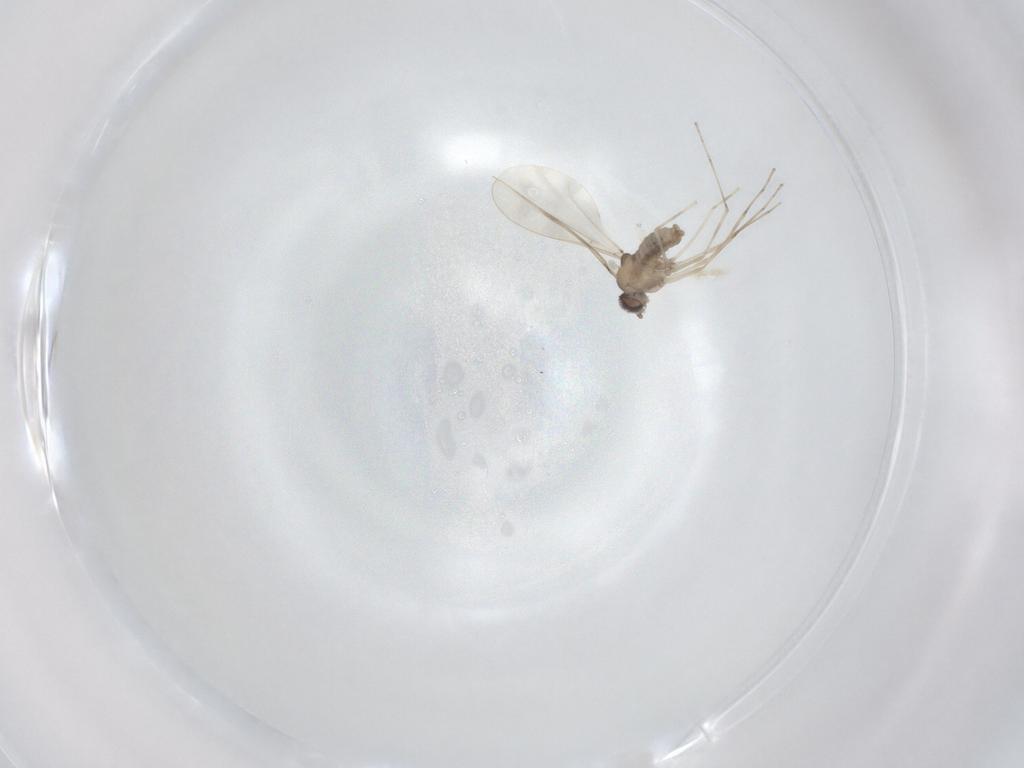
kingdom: Animalia
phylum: Arthropoda
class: Insecta
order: Diptera
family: Cecidomyiidae
